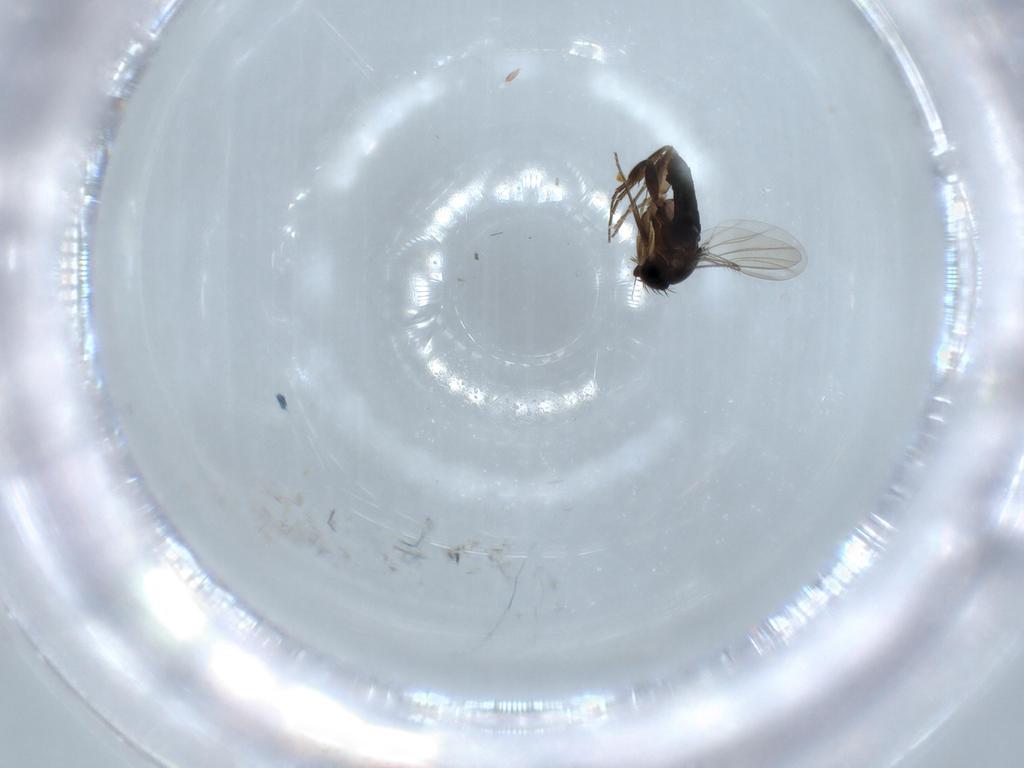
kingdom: Animalia
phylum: Arthropoda
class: Insecta
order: Diptera
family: Phoridae
